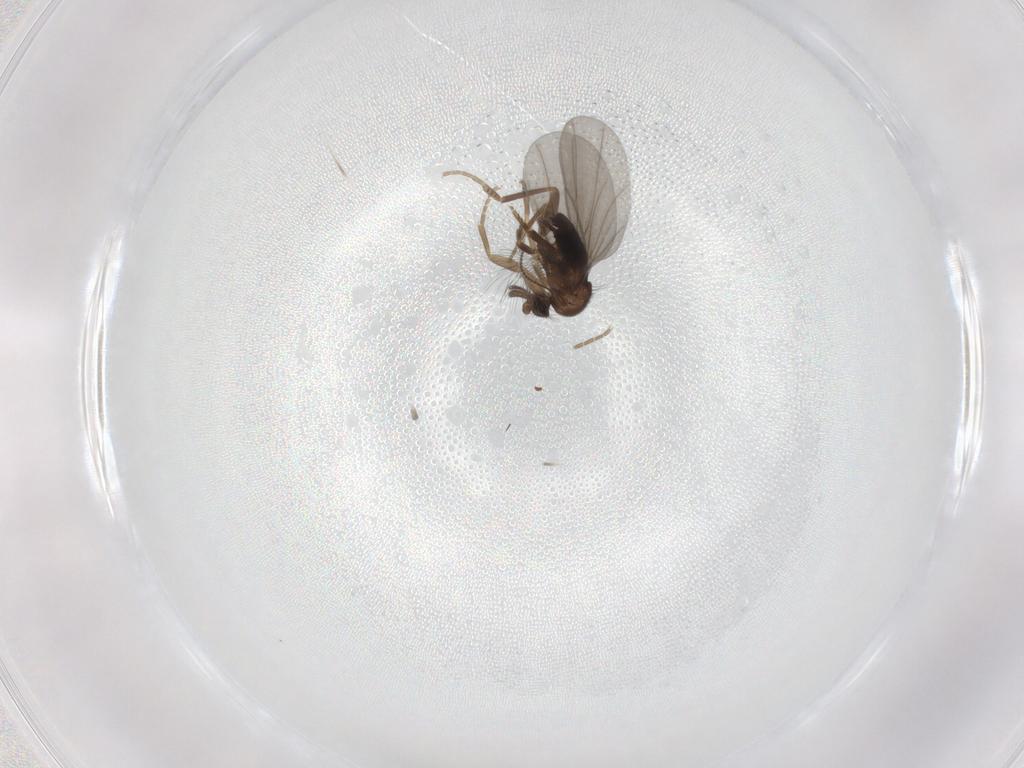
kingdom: Animalia
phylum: Arthropoda
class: Insecta
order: Diptera
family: Phoridae
